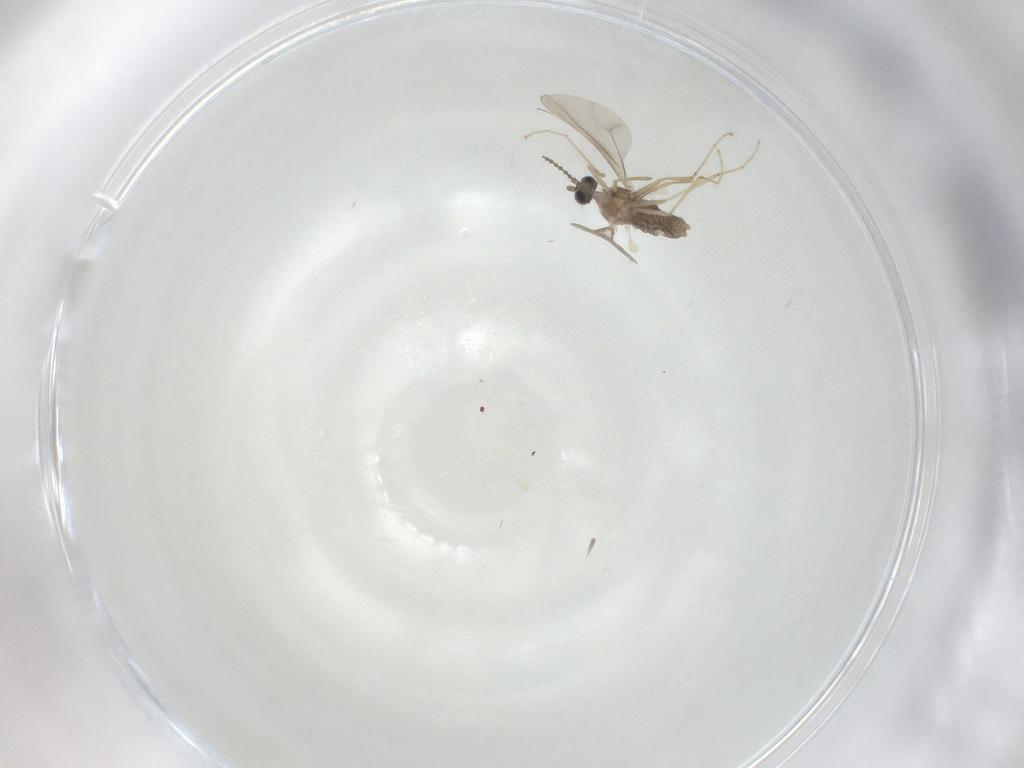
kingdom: Animalia
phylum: Arthropoda
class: Insecta
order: Diptera
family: Cecidomyiidae
